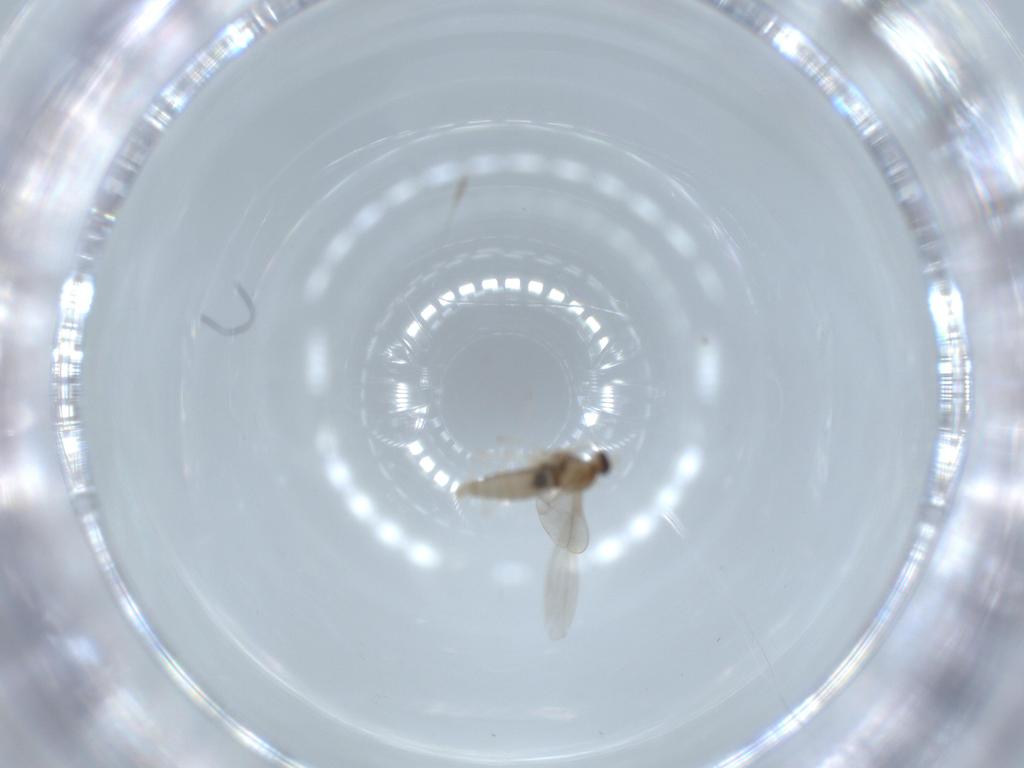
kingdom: Animalia
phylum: Arthropoda
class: Insecta
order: Diptera
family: Cecidomyiidae
